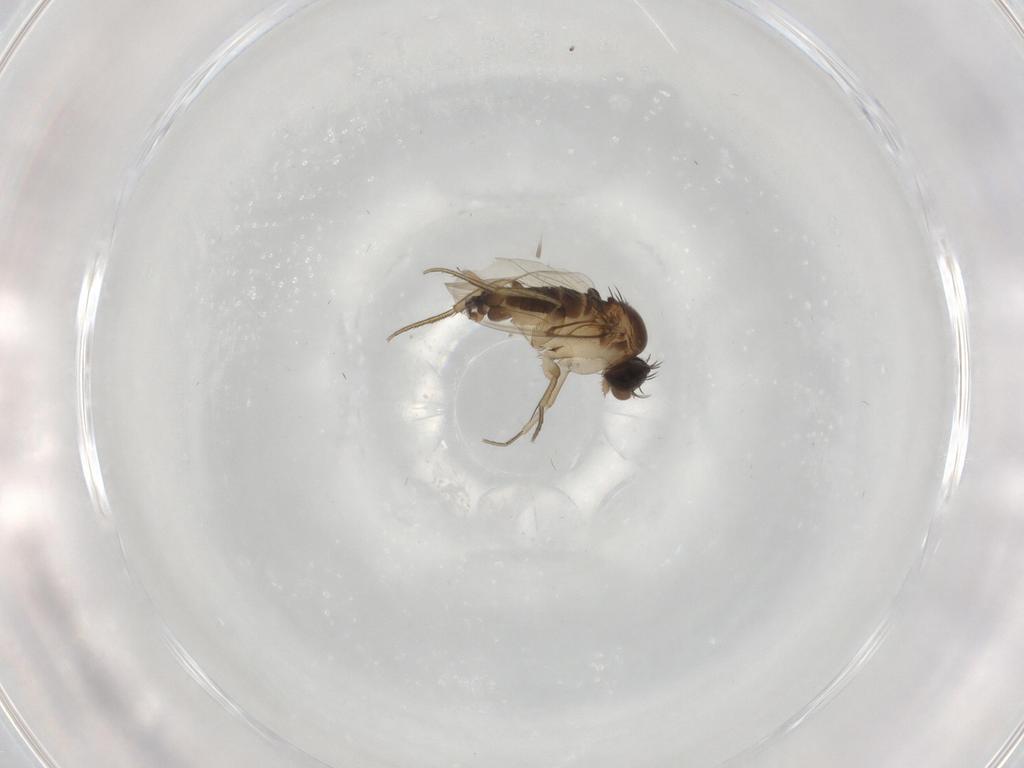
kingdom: Animalia
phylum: Arthropoda
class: Insecta
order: Diptera
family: Phoridae
